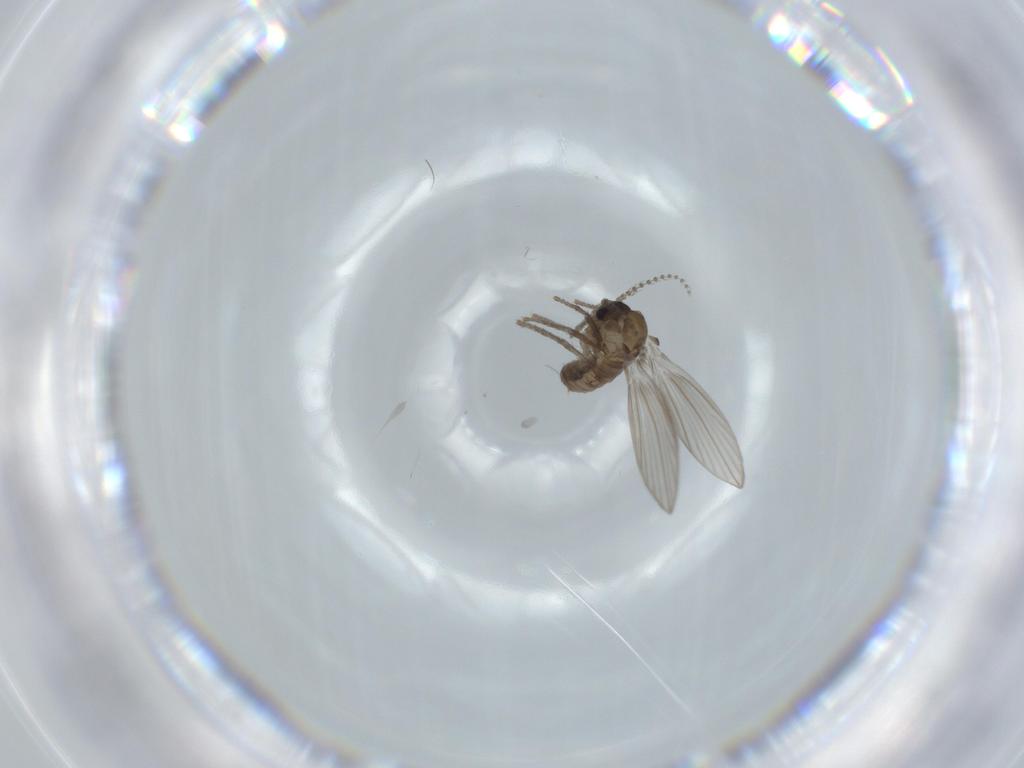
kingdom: Animalia
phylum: Arthropoda
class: Insecta
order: Diptera
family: Psychodidae
